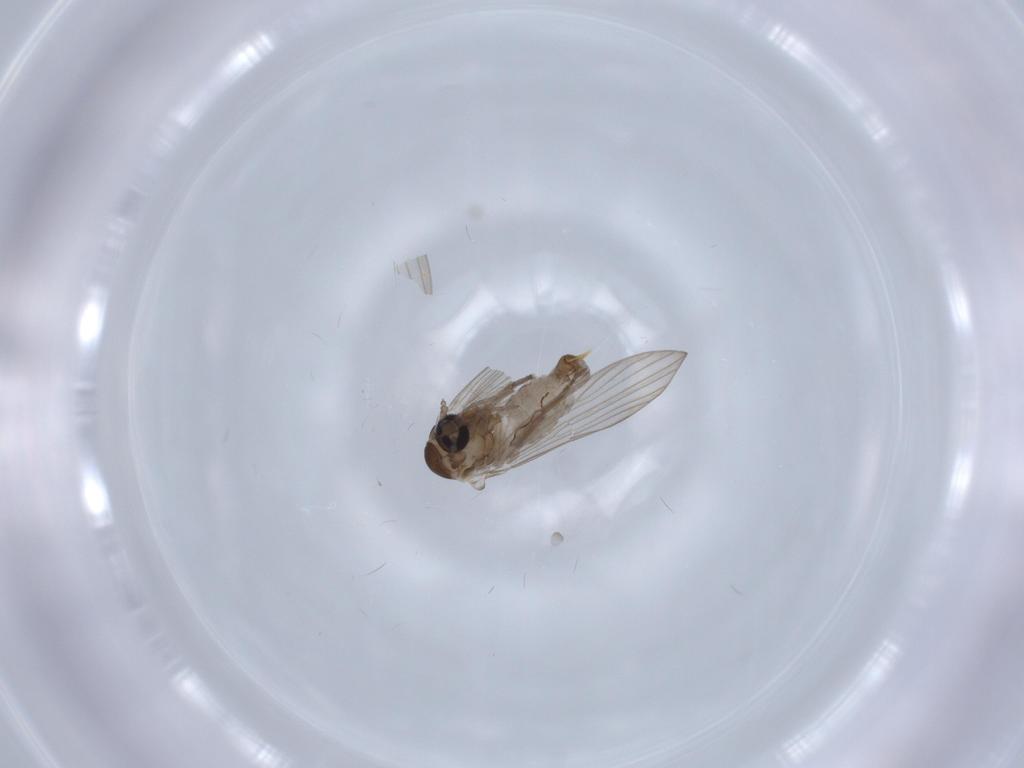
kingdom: Animalia
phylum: Arthropoda
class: Insecta
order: Diptera
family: Psychodidae
